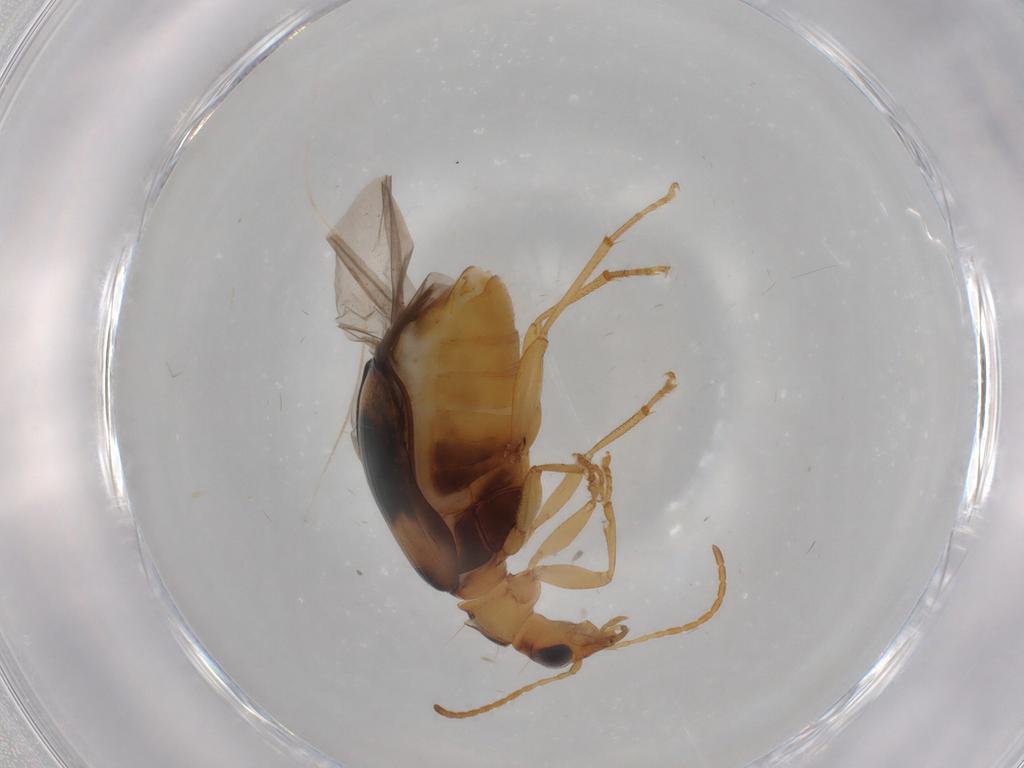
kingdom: Animalia
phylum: Arthropoda
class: Insecta
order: Coleoptera
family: Carabidae
